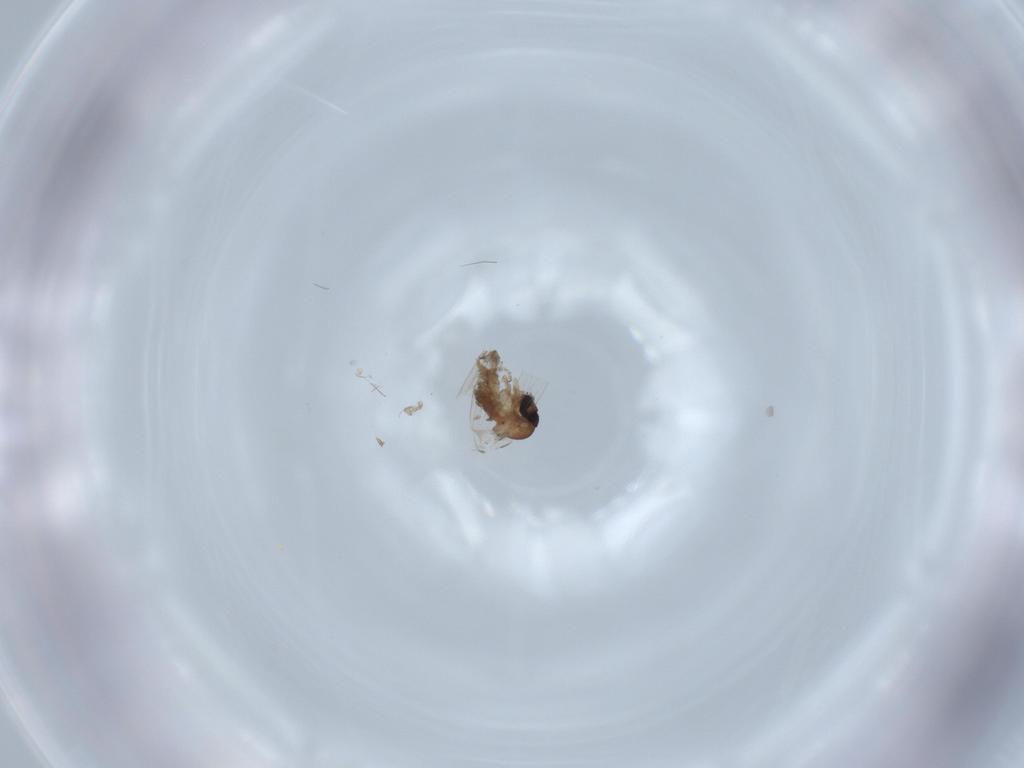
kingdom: Animalia
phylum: Arthropoda
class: Insecta
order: Diptera
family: Psychodidae
